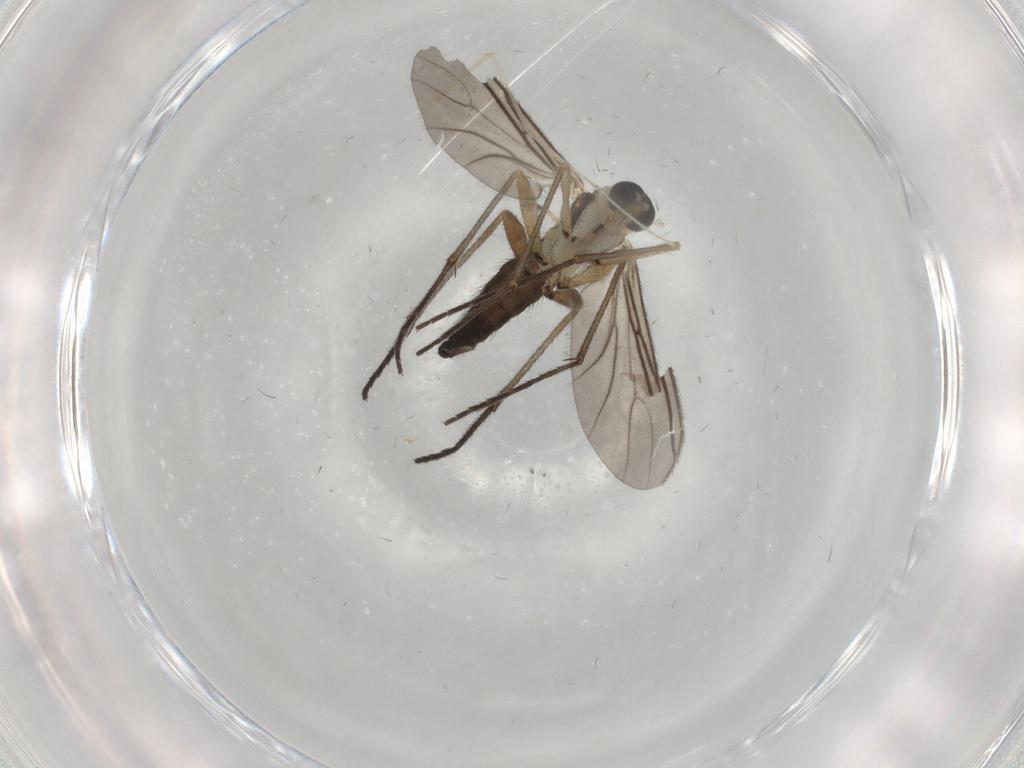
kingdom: Animalia
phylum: Arthropoda
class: Insecta
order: Diptera
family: Sciaridae
